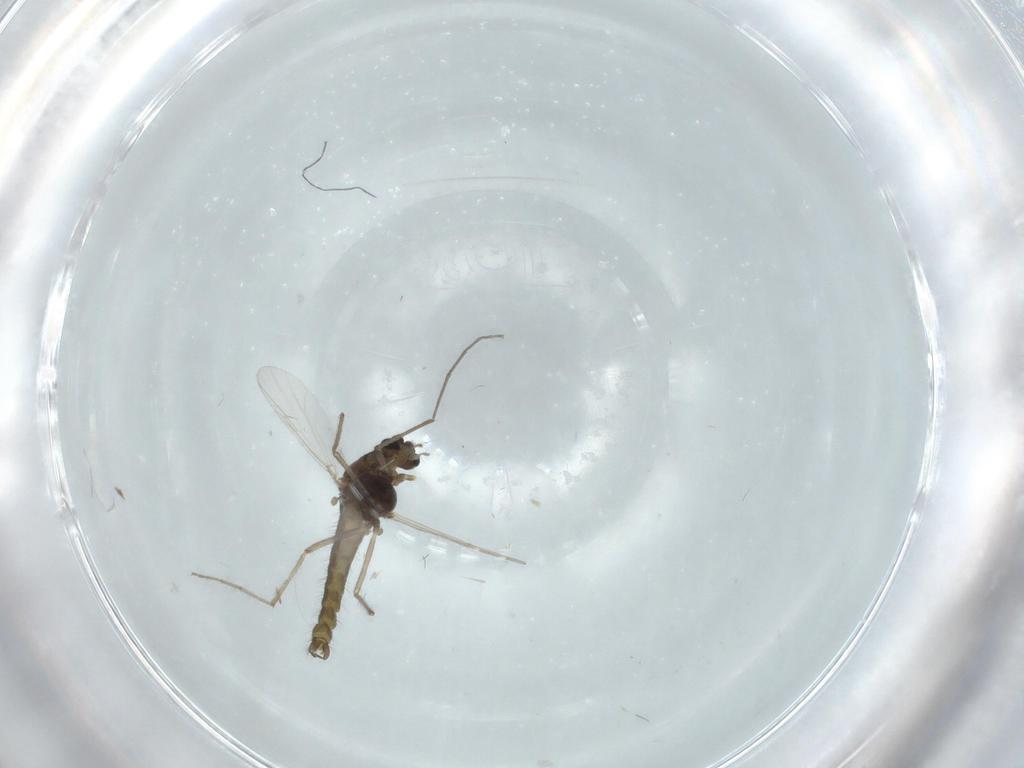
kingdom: Animalia
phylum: Arthropoda
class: Insecta
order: Diptera
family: Chironomidae
